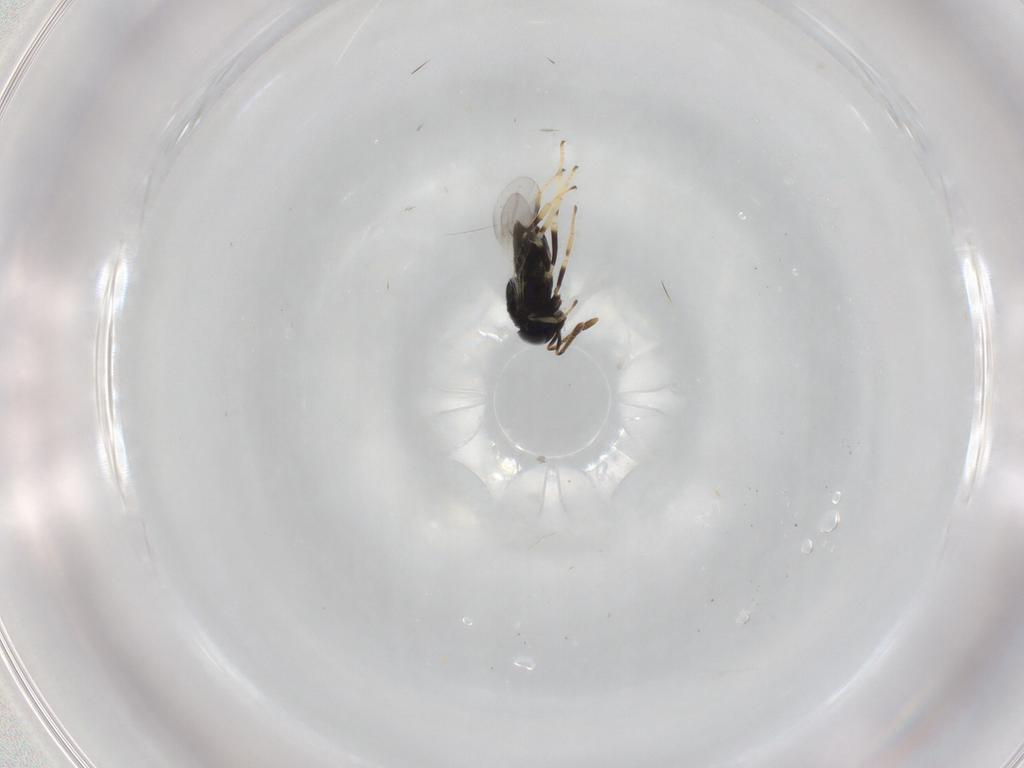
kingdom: Animalia
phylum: Arthropoda
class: Insecta
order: Hymenoptera
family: Encyrtidae
